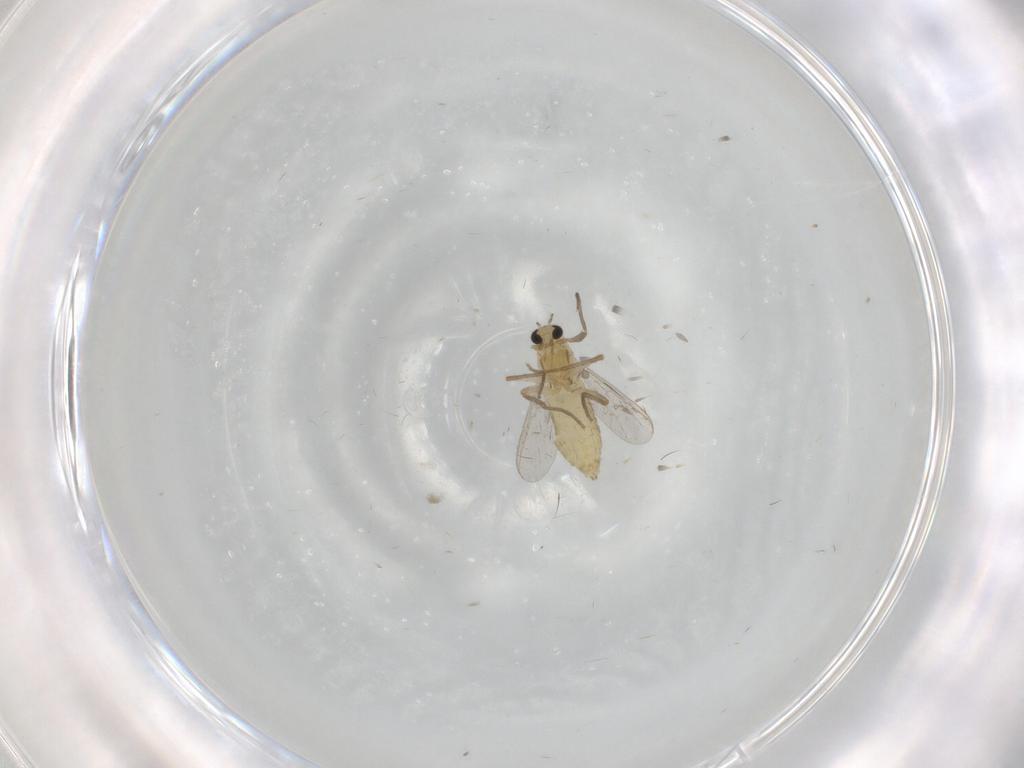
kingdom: Animalia
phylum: Arthropoda
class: Insecta
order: Diptera
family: Chironomidae
